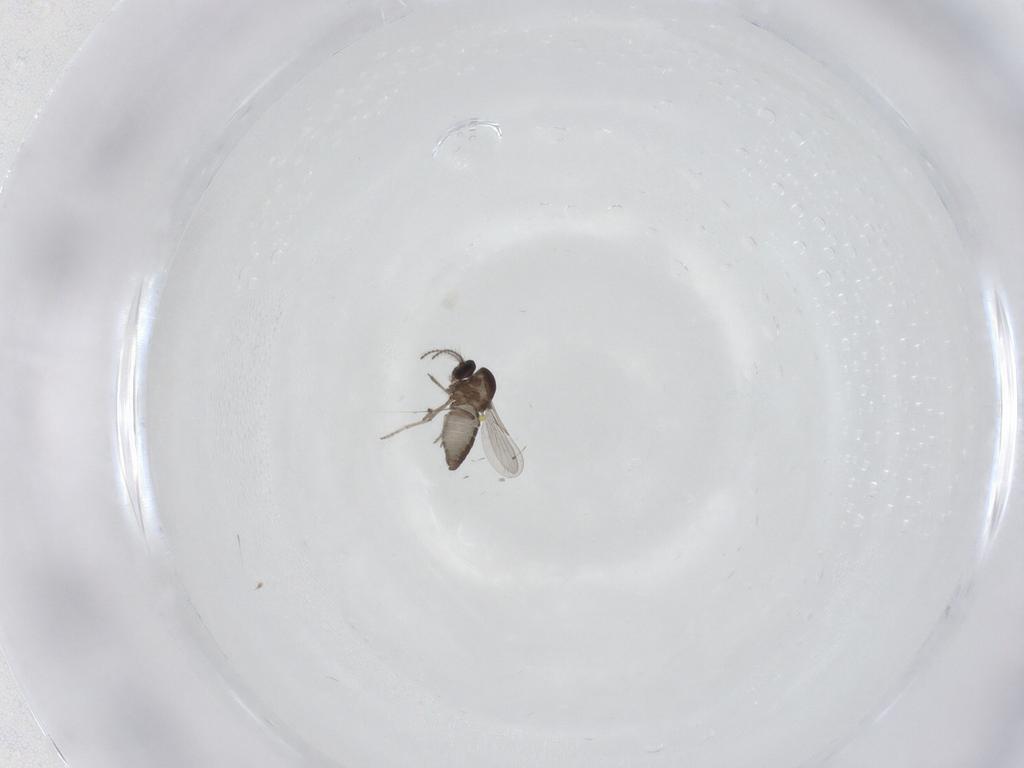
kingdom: Animalia
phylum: Arthropoda
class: Insecta
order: Diptera
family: Ceratopogonidae
